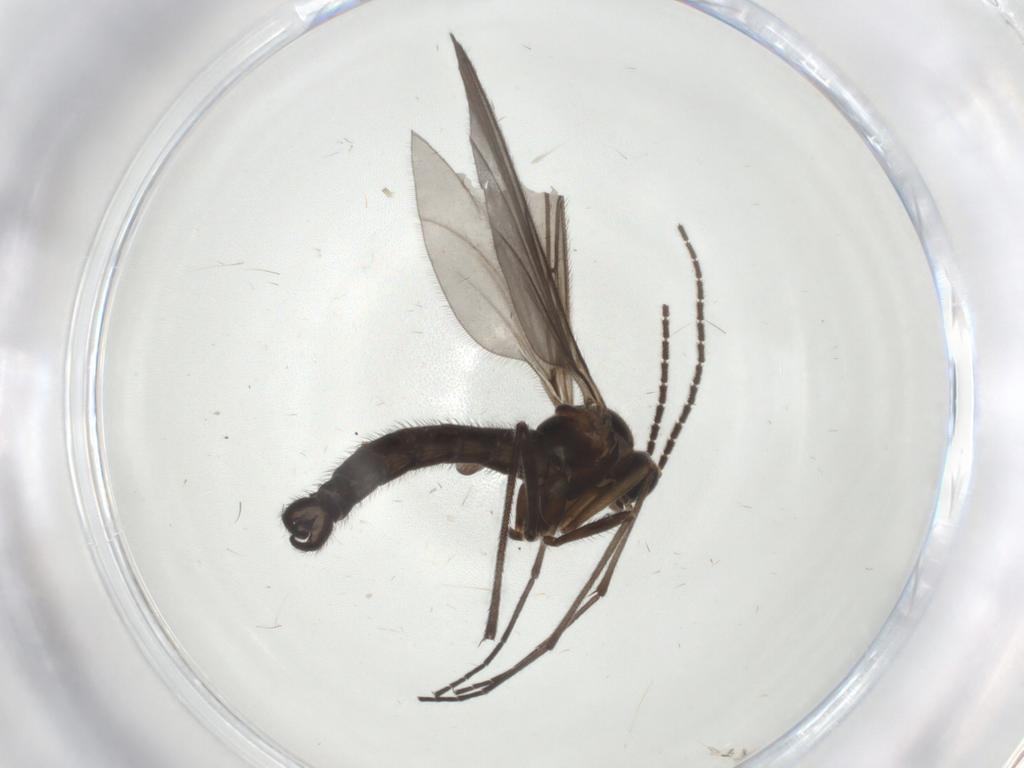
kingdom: Animalia
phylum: Arthropoda
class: Insecta
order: Diptera
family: Sciaridae
